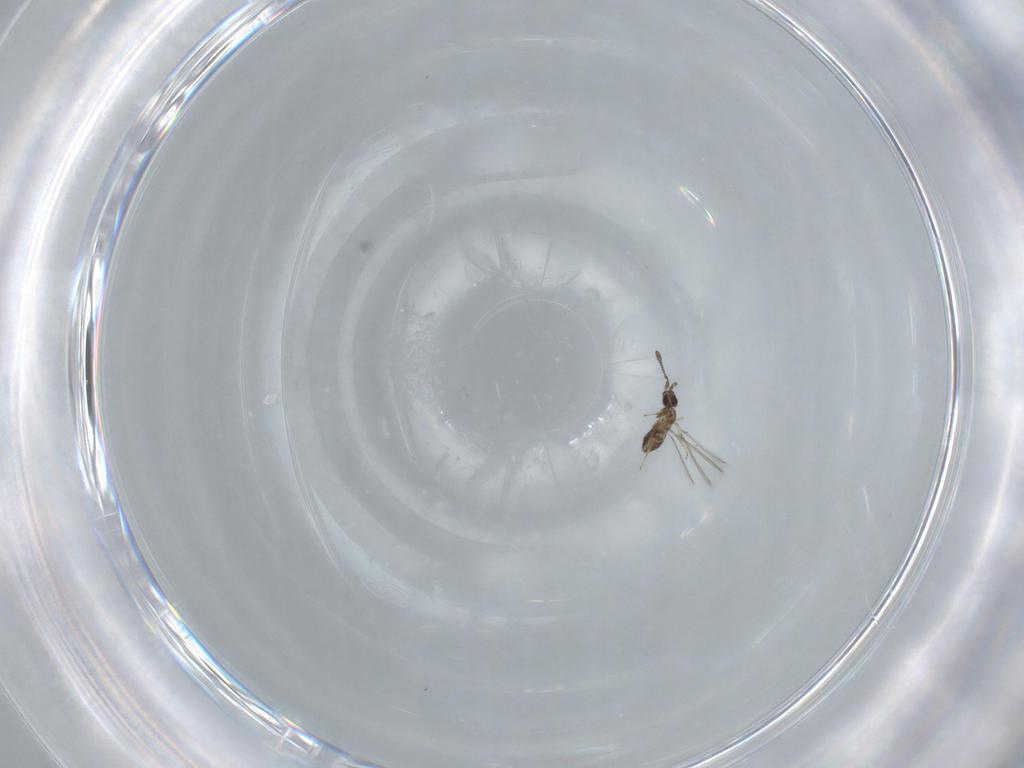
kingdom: Animalia
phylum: Arthropoda
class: Insecta
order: Hymenoptera
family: Mymaridae
